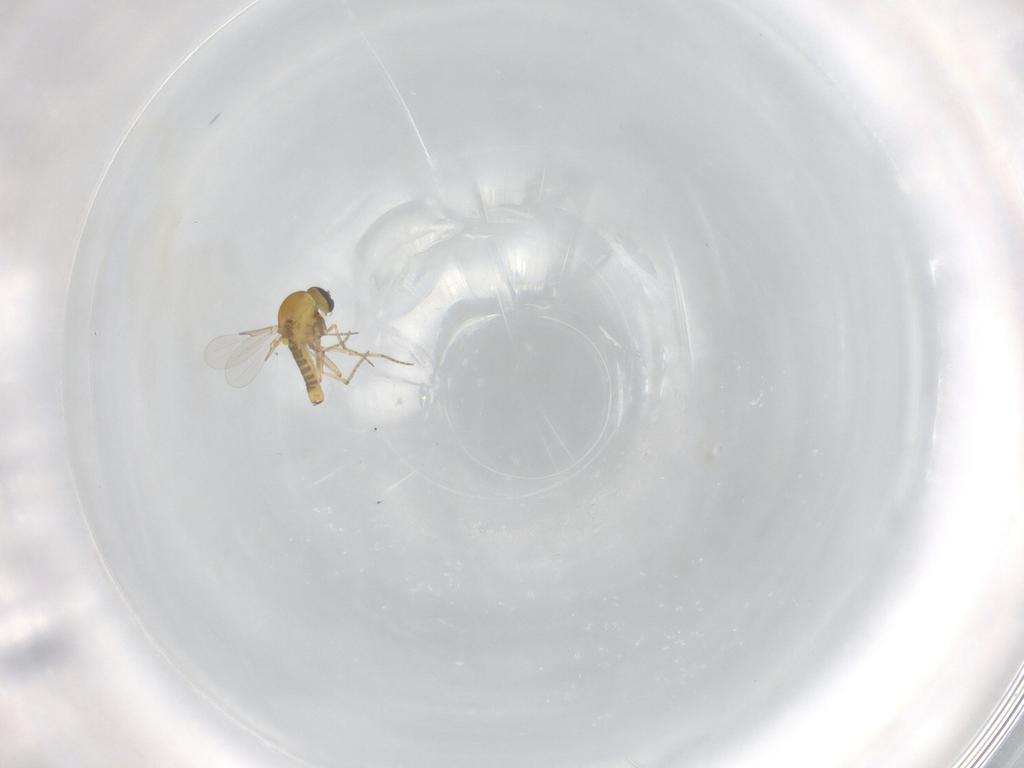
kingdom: Animalia
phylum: Arthropoda
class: Insecta
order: Diptera
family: Ceratopogonidae
